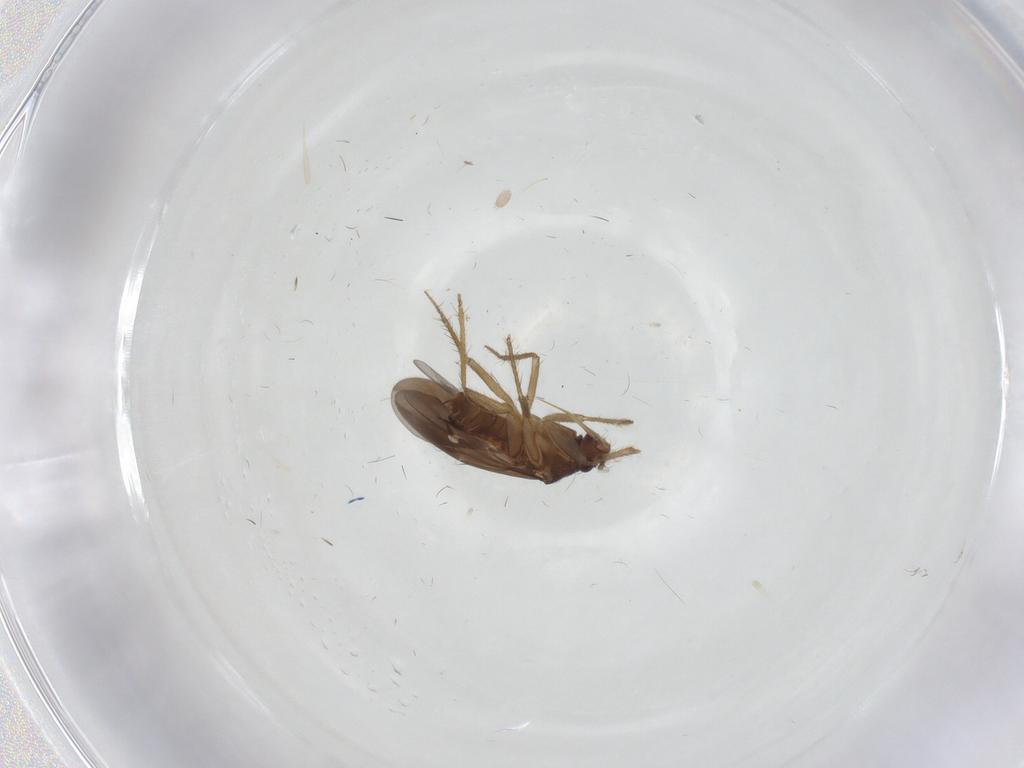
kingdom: Animalia
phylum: Arthropoda
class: Insecta
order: Hemiptera
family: Ceratocombidae
